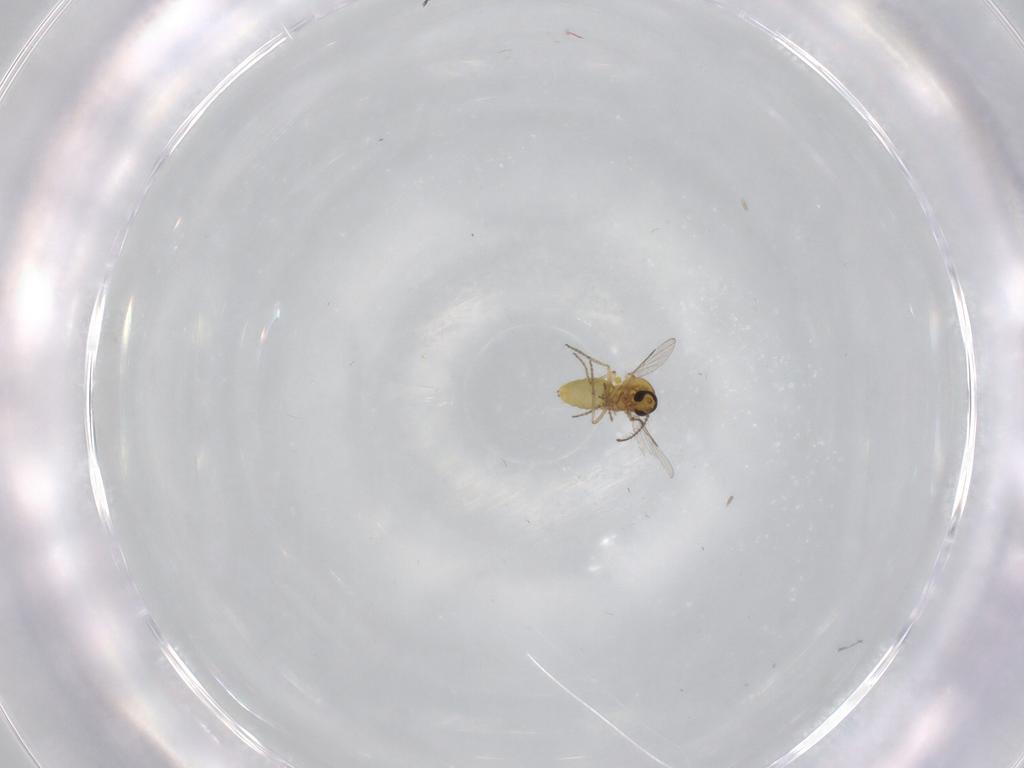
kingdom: Animalia
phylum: Arthropoda
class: Insecta
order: Diptera
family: Ceratopogonidae
